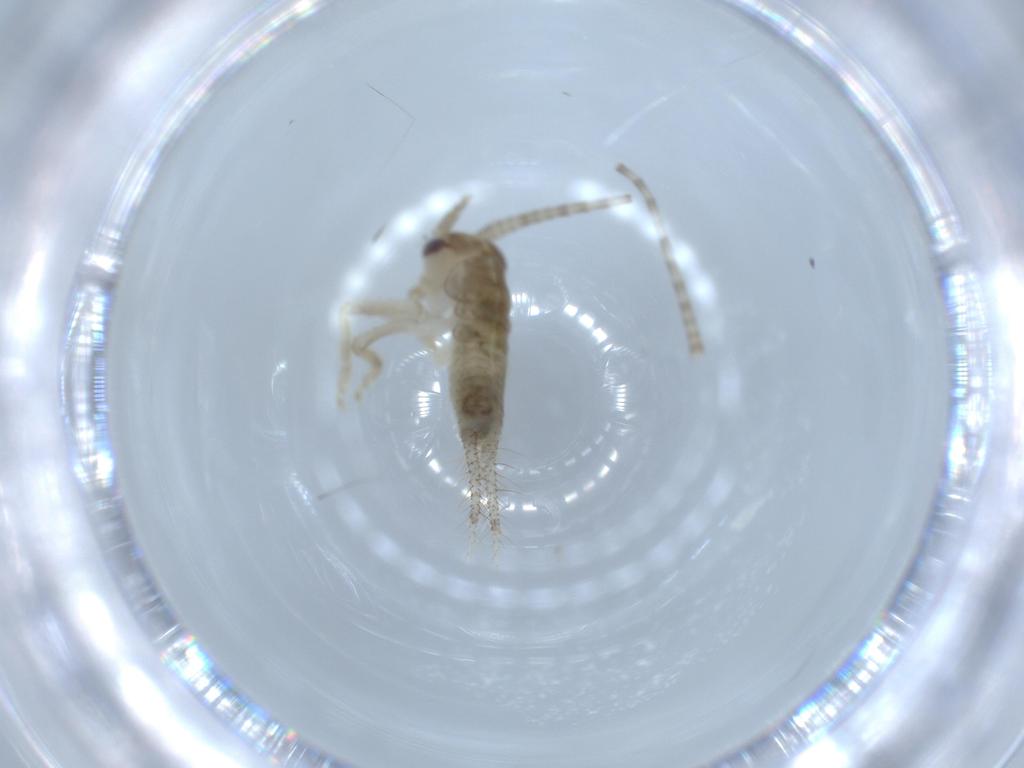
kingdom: Animalia
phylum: Arthropoda
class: Insecta
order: Orthoptera
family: Gryllidae
